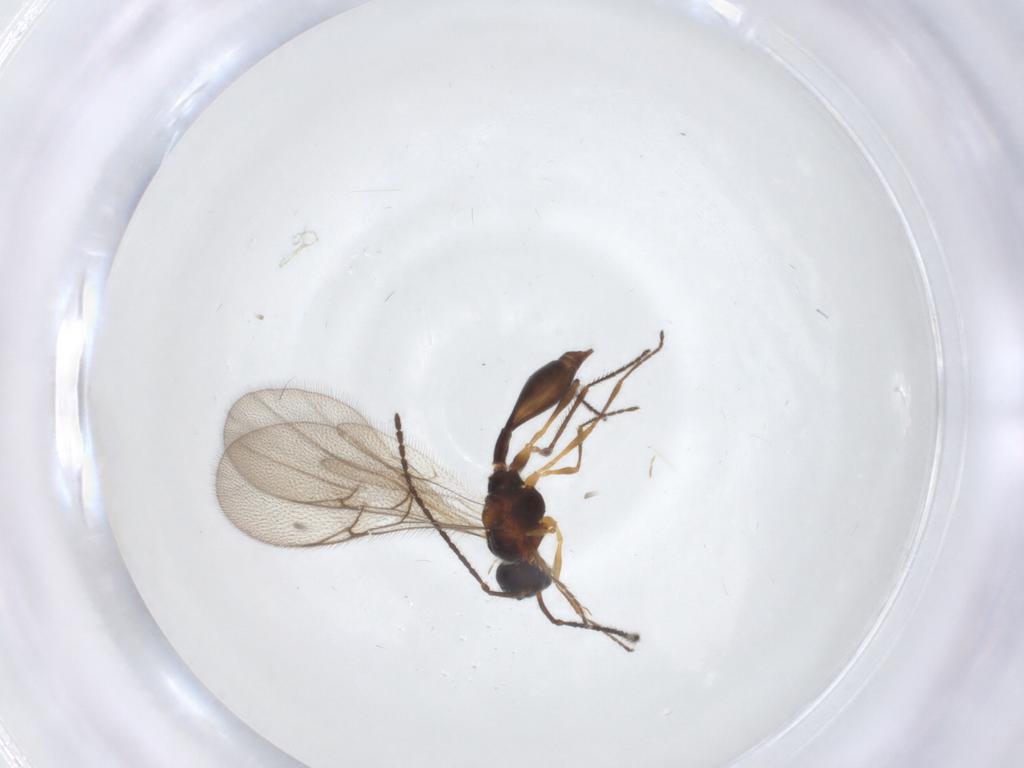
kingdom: Animalia
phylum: Arthropoda
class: Insecta
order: Hymenoptera
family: Diapriidae
